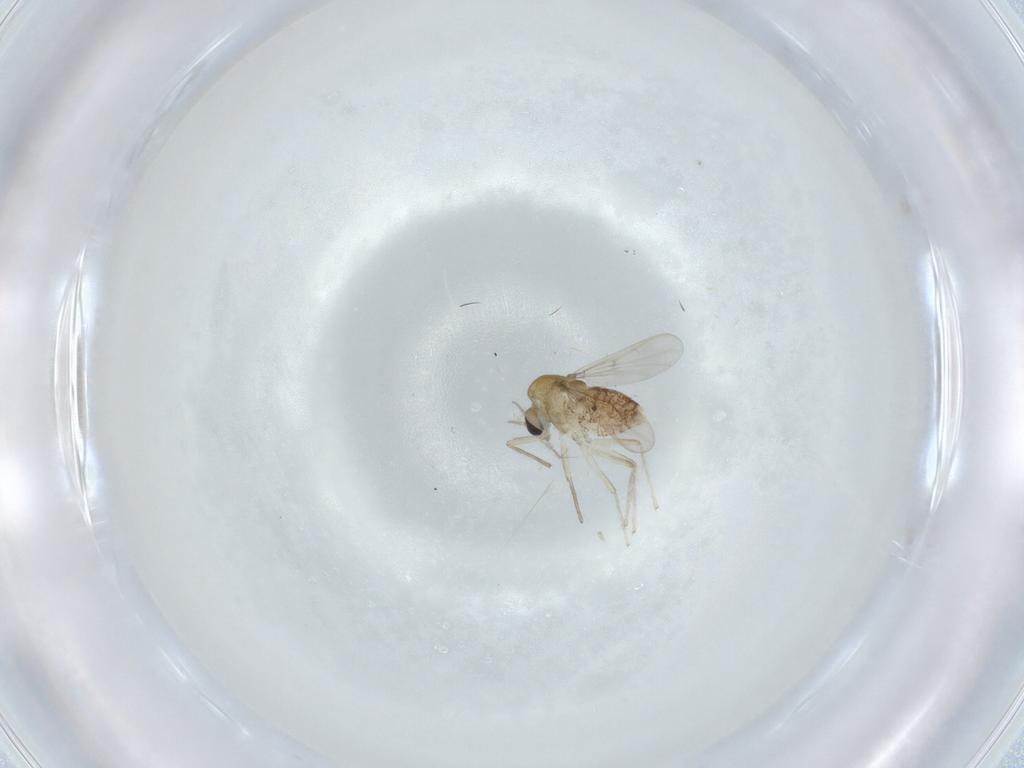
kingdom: Animalia
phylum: Arthropoda
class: Insecta
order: Diptera
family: Chironomidae
